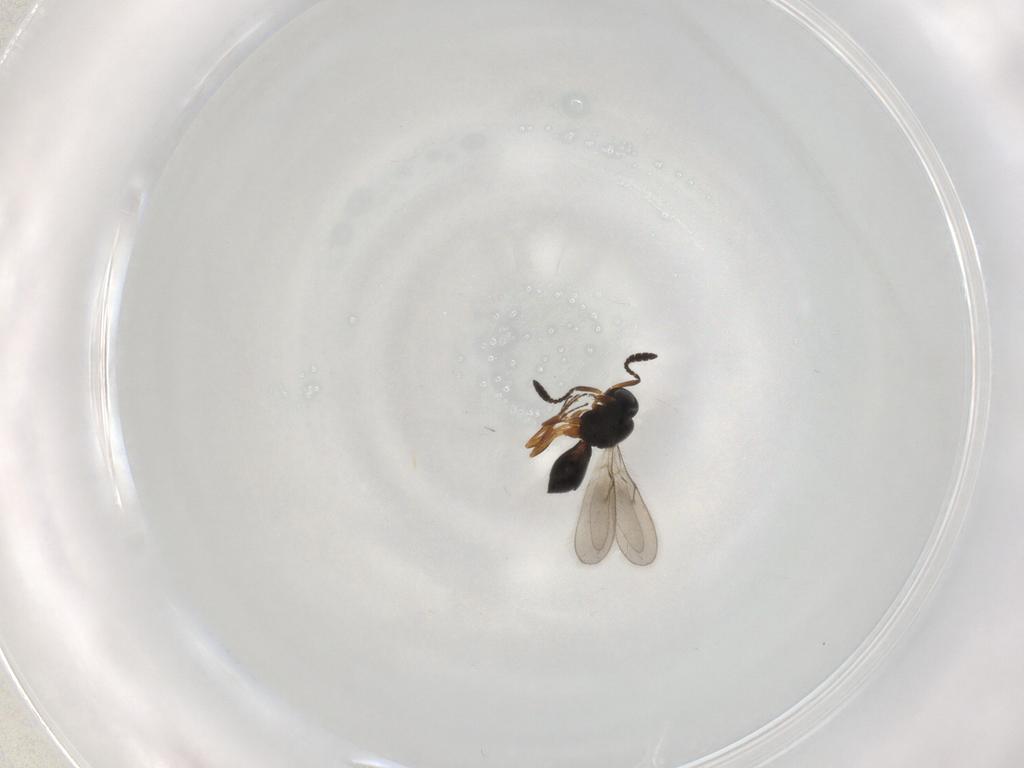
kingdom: Animalia
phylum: Arthropoda
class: Insecta
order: Hymenoptera
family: Scelionidae
